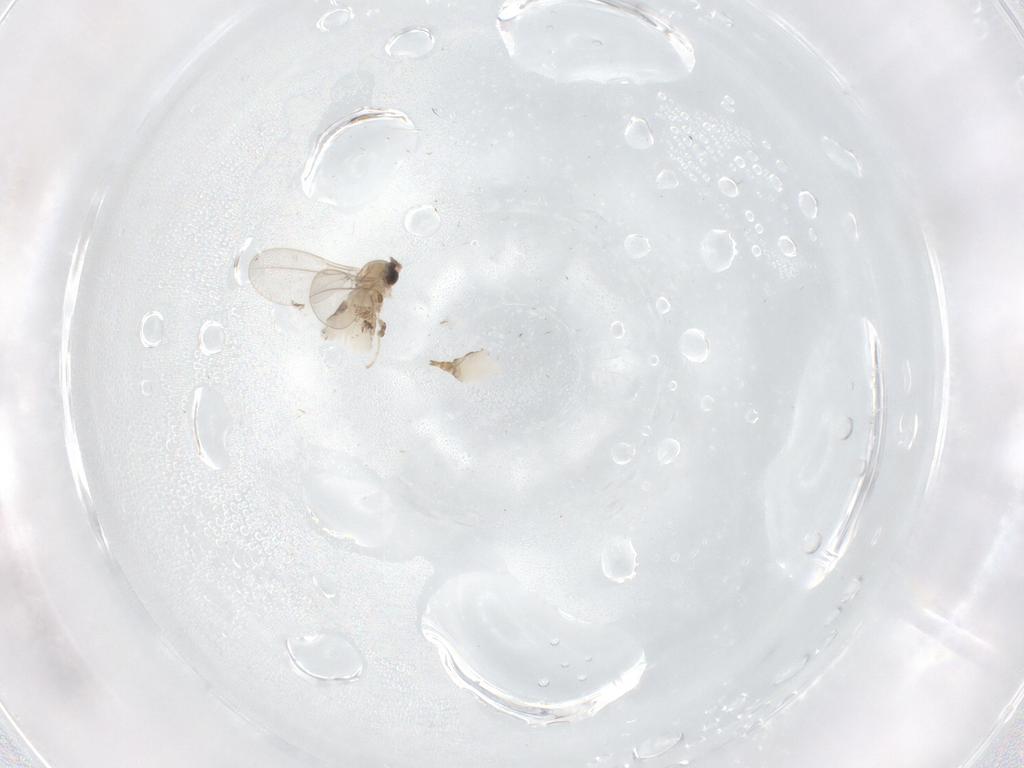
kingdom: Animalia
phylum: Arthropoda
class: Insecta
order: Diptera
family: Cecidomyiidae
